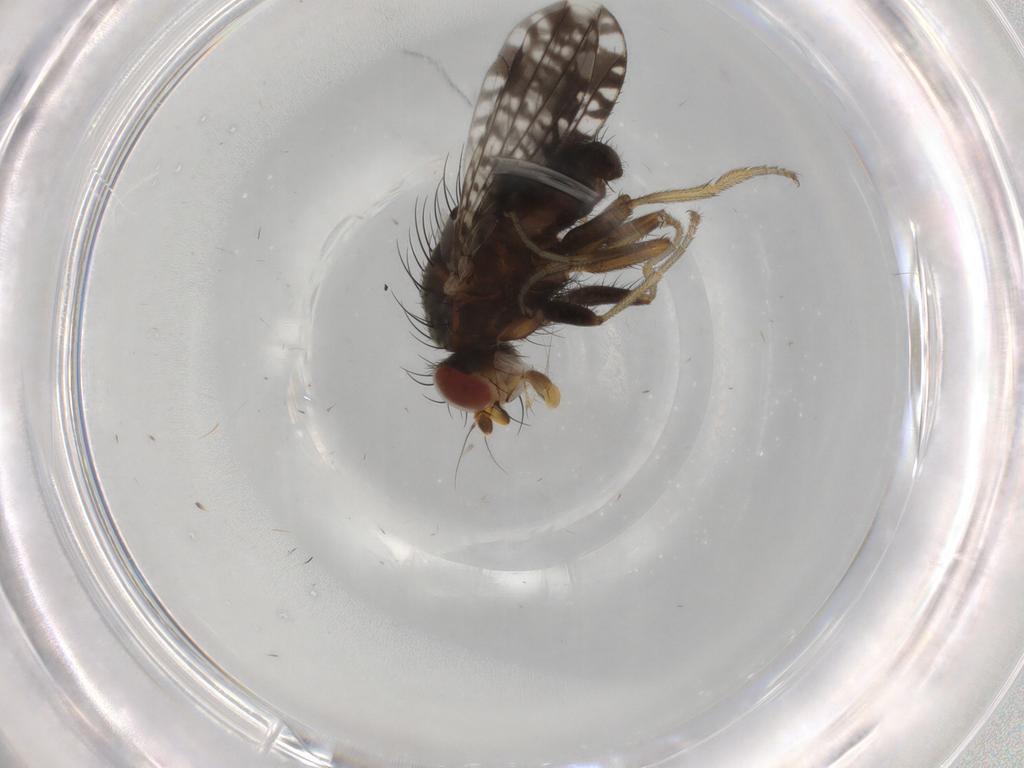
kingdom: Animalia
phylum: Arthropoda
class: Insecta
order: Diptera
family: Tephritidae
